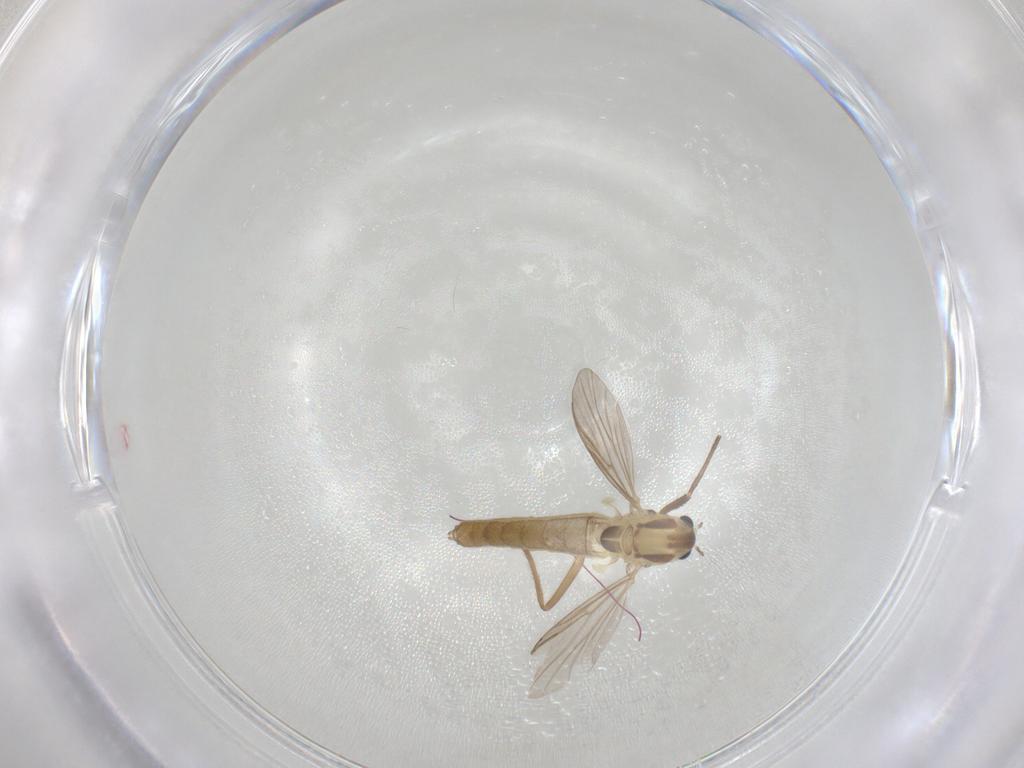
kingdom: Animalia
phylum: Arthropoda
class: Insecta
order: Diptera
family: Chironomidae
